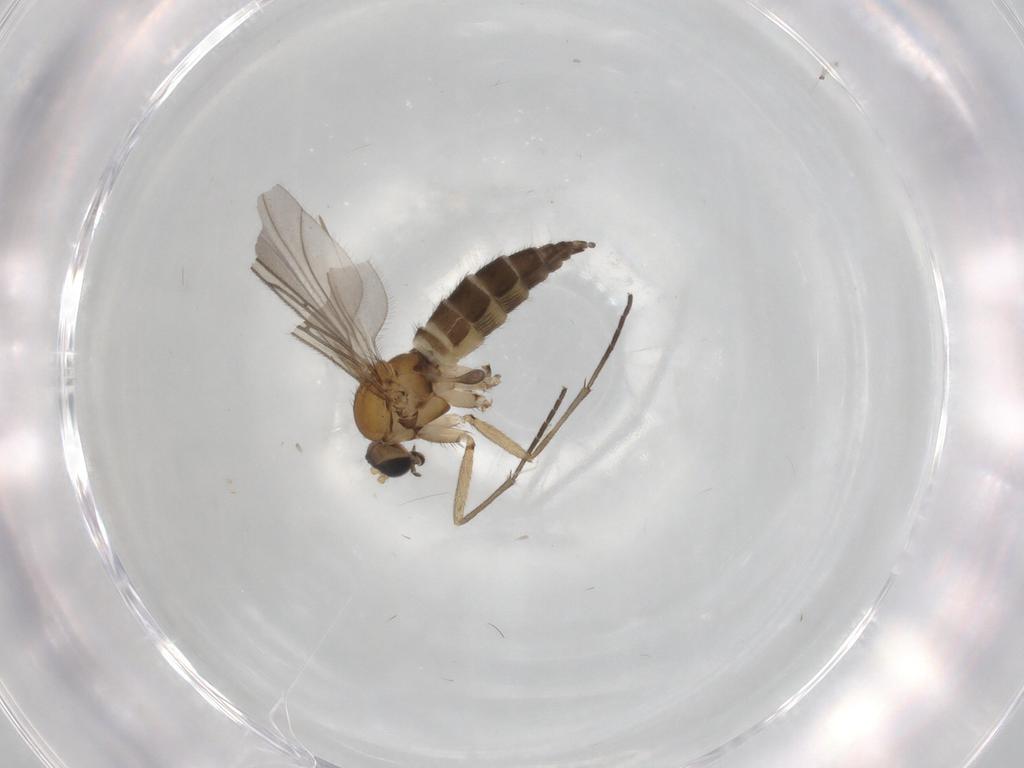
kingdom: Animalia
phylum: Arthropoda
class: Insecta
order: Diptera
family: Sciaridae
